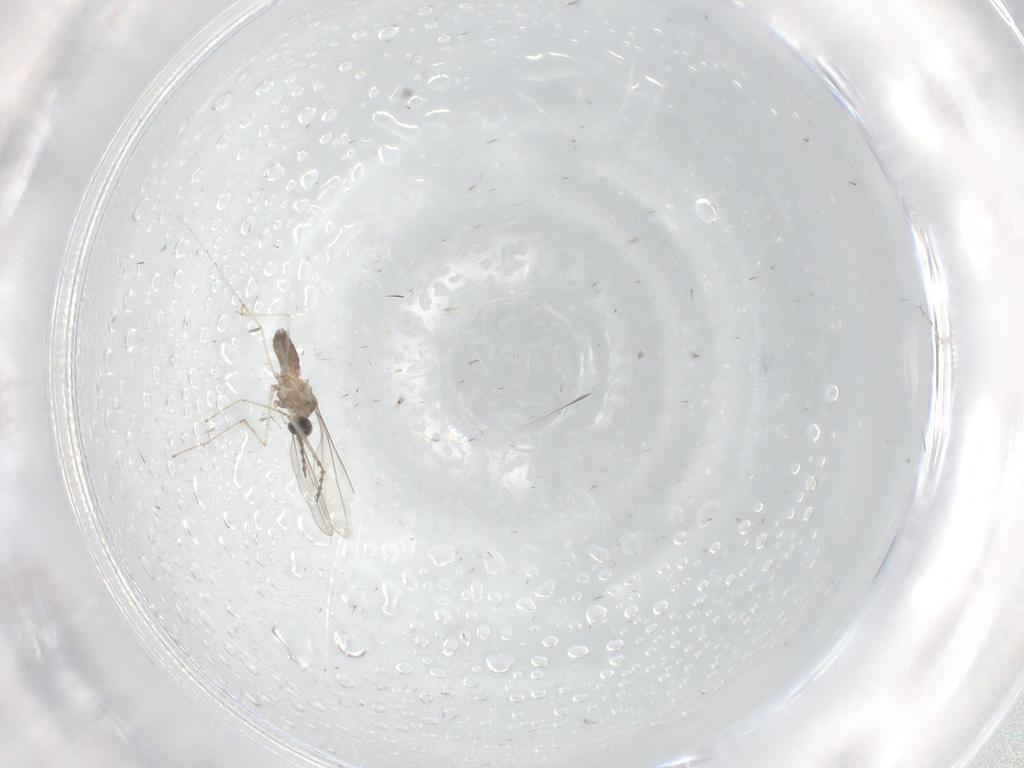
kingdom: Animalia
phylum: Arthropoda
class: Insecta
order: Diptera
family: Cecidomyiidae
